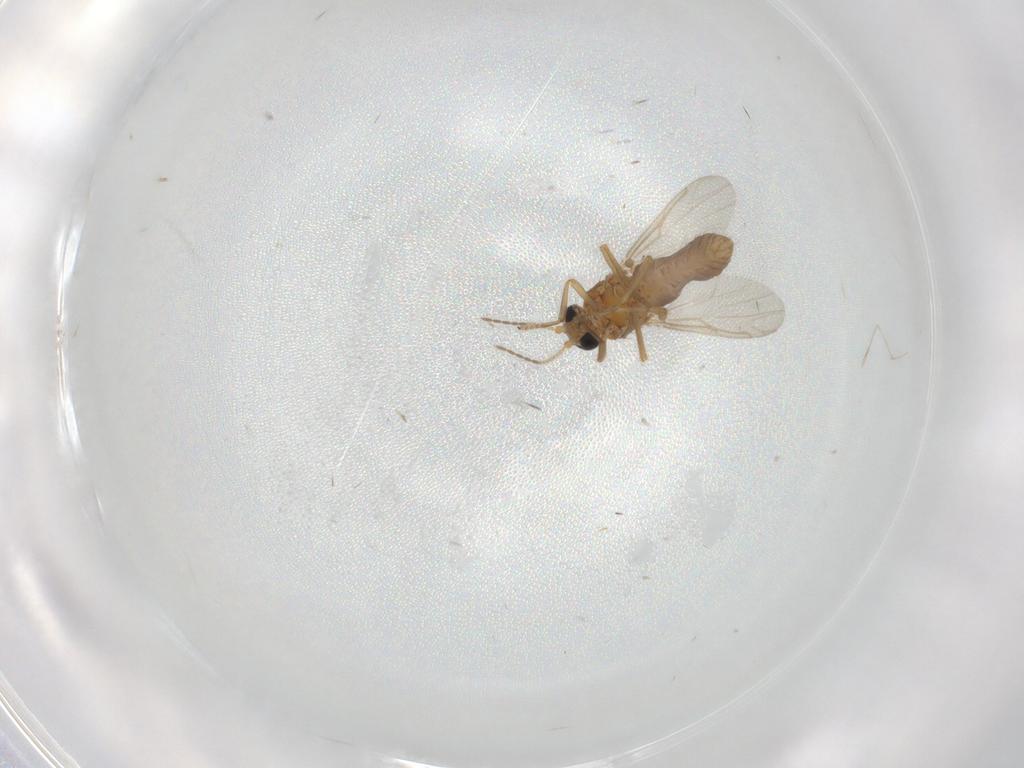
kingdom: Animalia
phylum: Arthropoda
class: Insecta
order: Diptera
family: Ceratopogonidae
